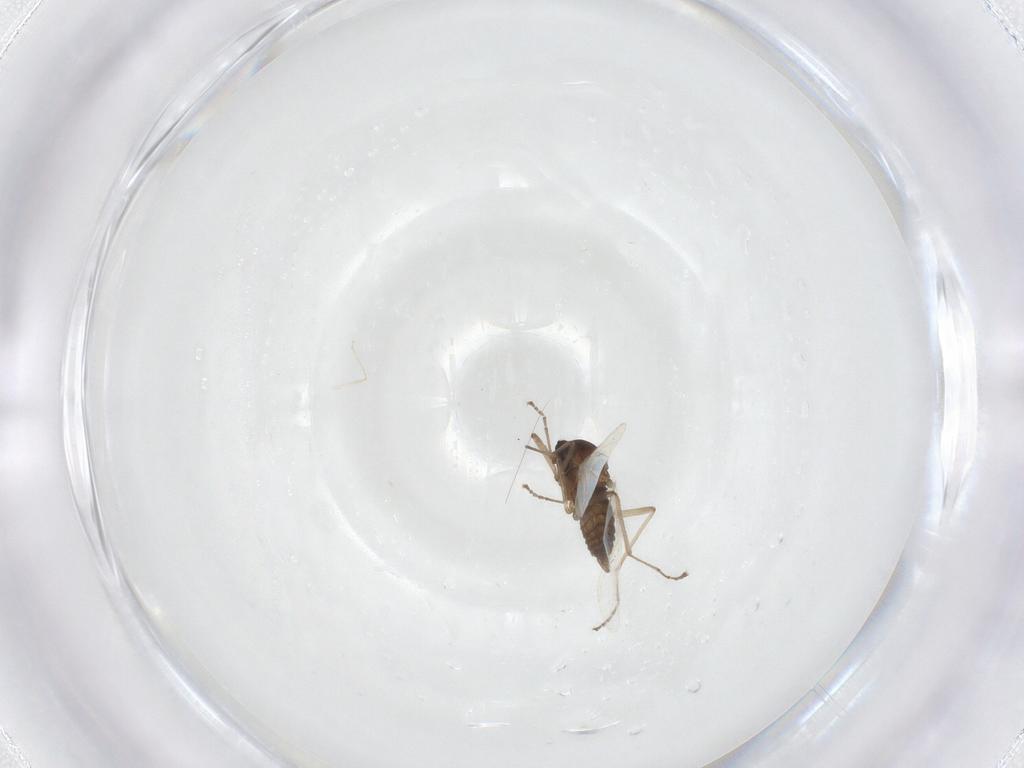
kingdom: Animalia
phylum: Arthropoda
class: Insecta
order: Diptera
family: Cecidomyiidae
